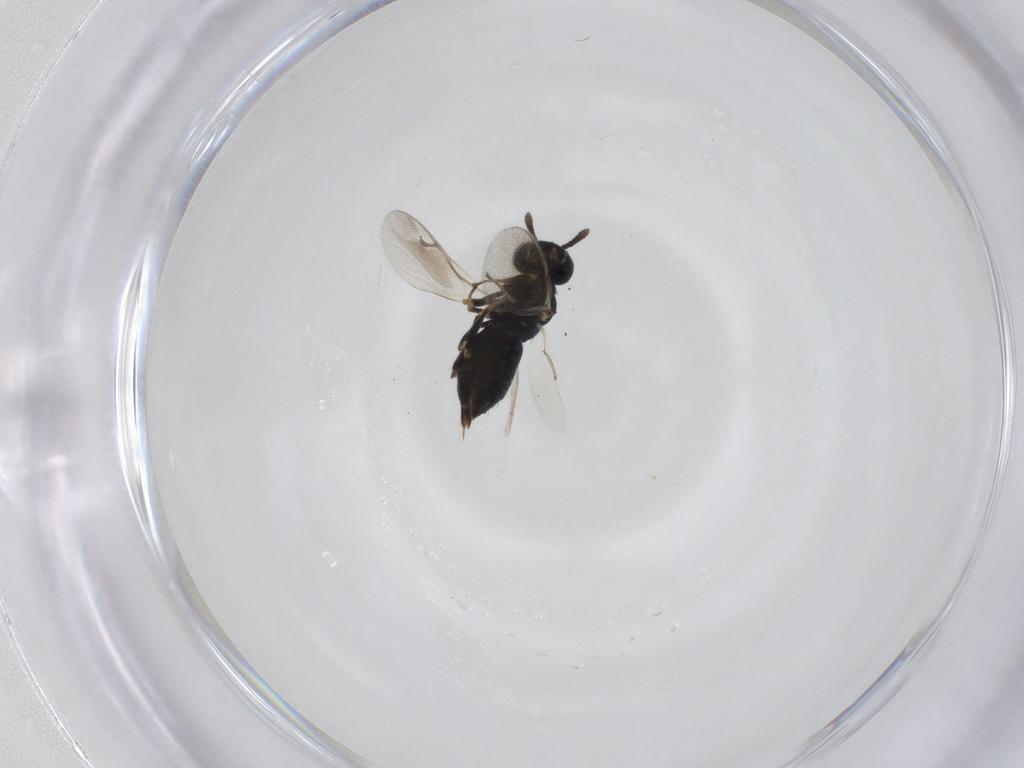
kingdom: Animalia
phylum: Arthropoda
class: Insecta
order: Hymenoptera
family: Pteromalidae
